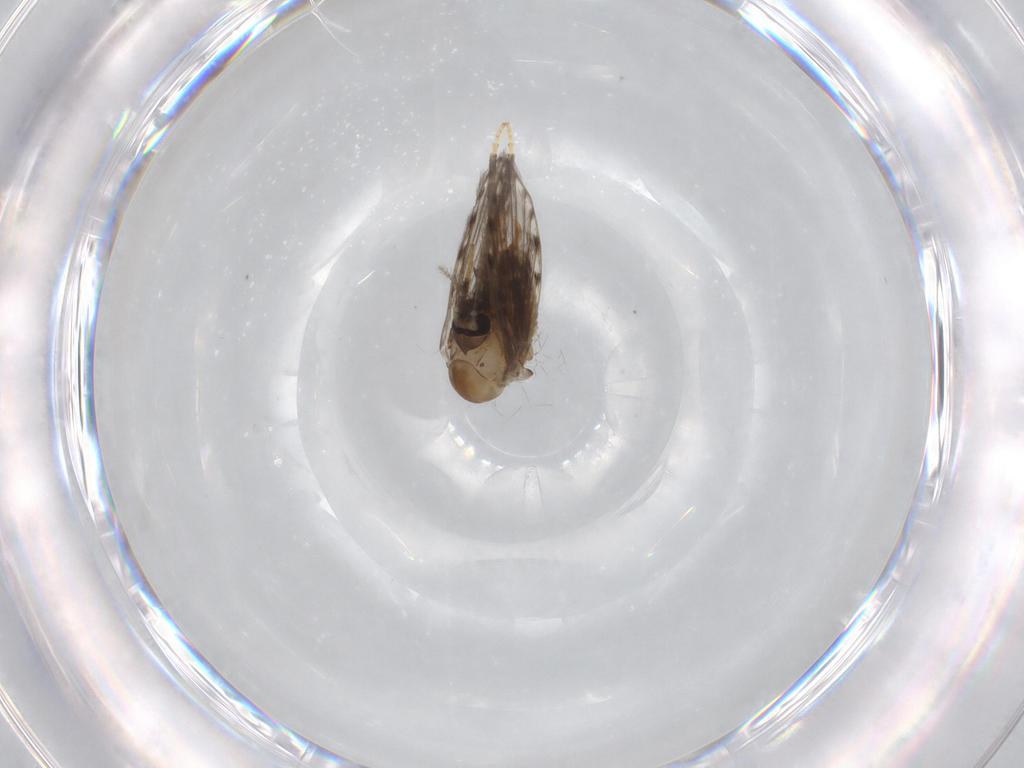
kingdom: Animalia
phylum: Arthropoda
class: Insecta
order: Diptera
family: Psychodidae
